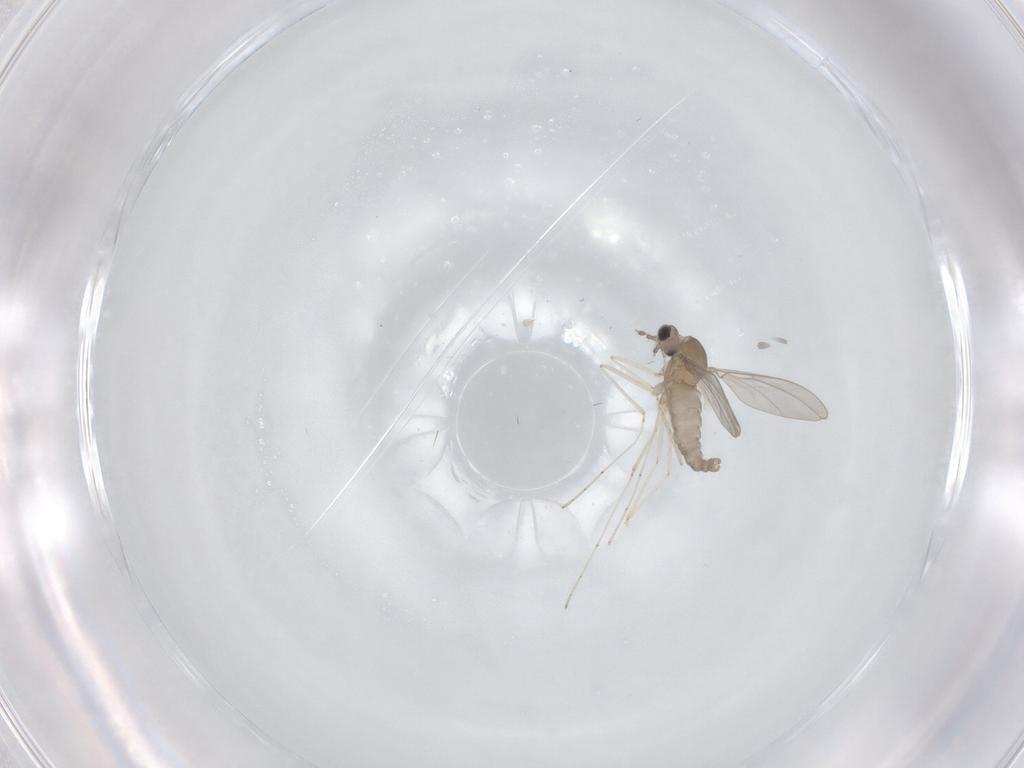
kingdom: Animalia
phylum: Arthropoda
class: Insecta
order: Diptera
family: Cecidomyiidae
